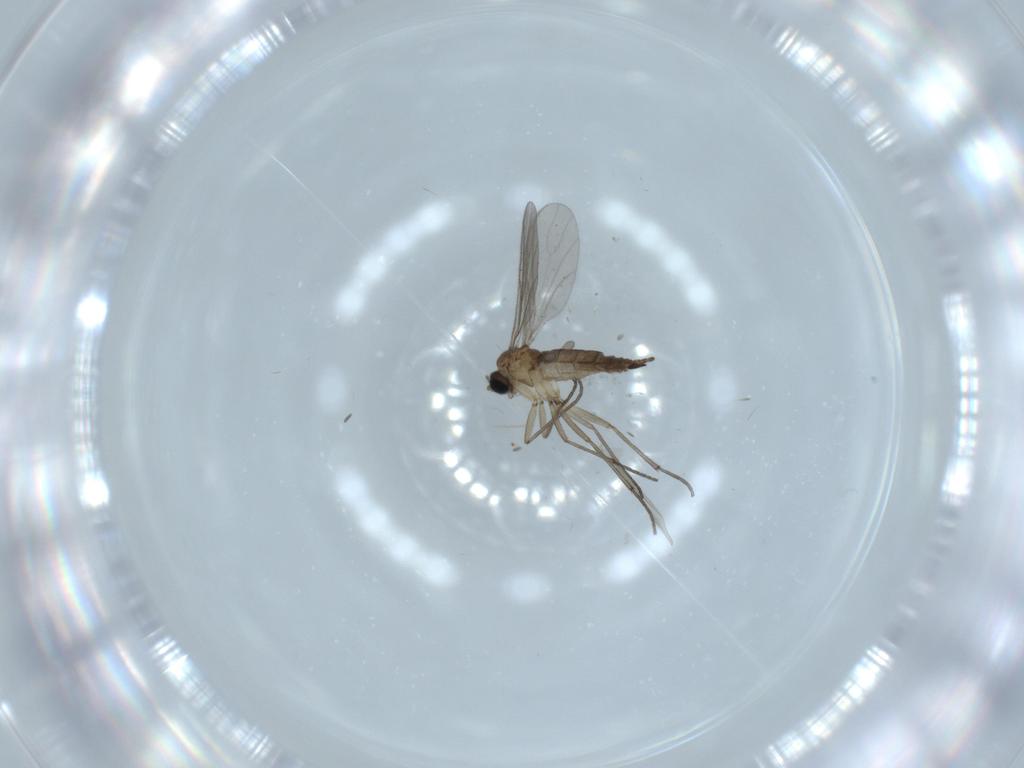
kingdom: Animalia
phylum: Arthropoda
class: Insecta
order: Diptera
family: Sciaridae
